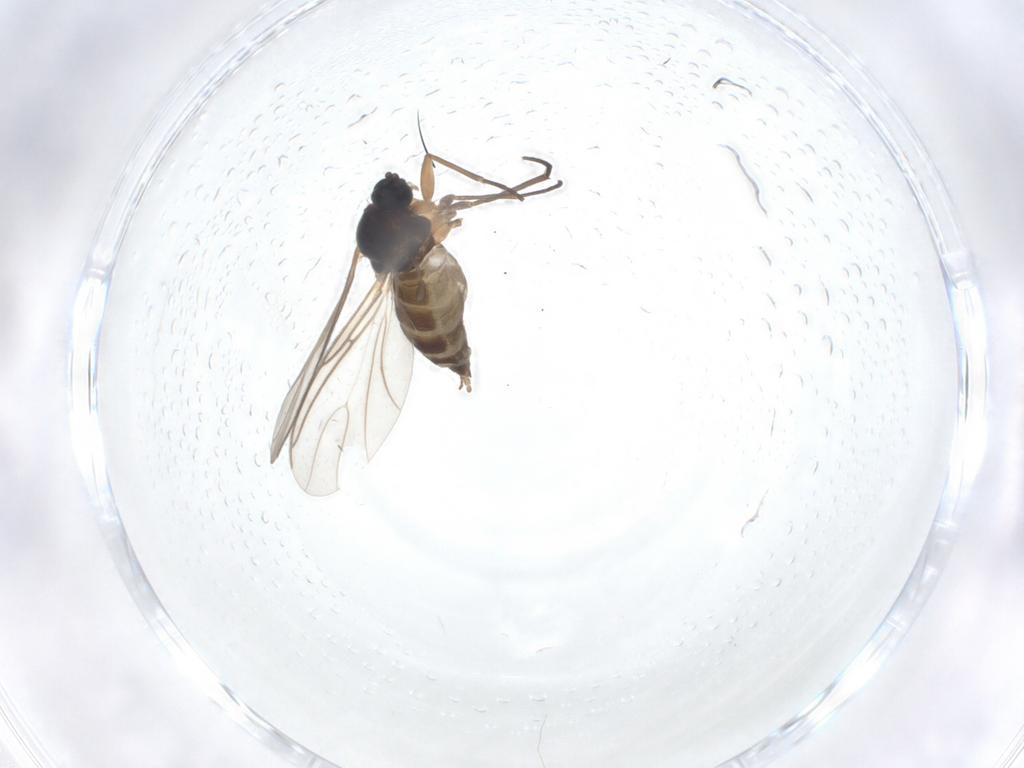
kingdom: Animalia
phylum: Arthropoda
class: Insecta
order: Diptera
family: Sciaridae
